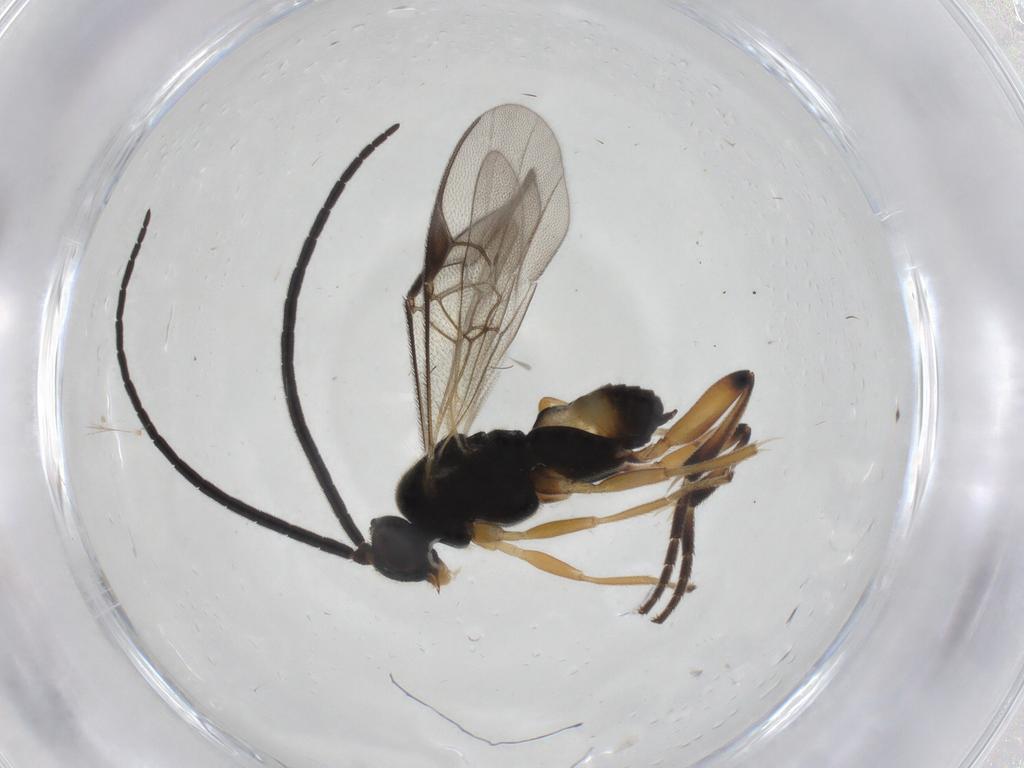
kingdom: Animalia
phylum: Arthropoda
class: Insecta
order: Hymenoptera
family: Braconidae
